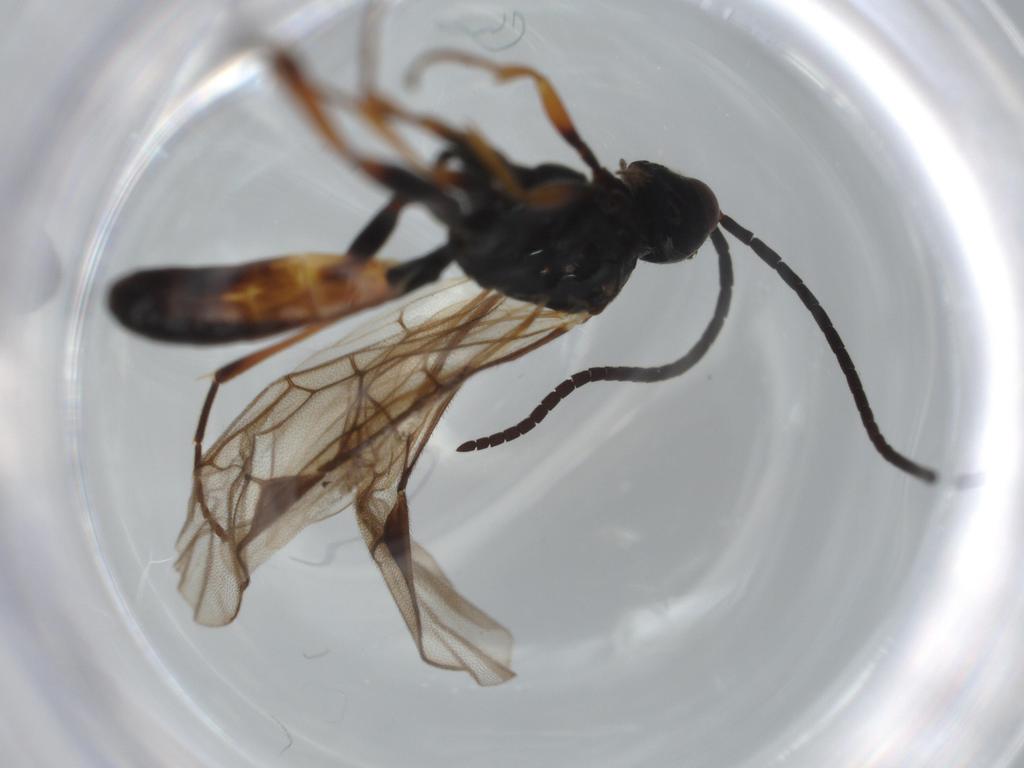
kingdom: Animalia
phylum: Arthropoda
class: Insecta
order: Hymenoptera
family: Ichneumonidae
